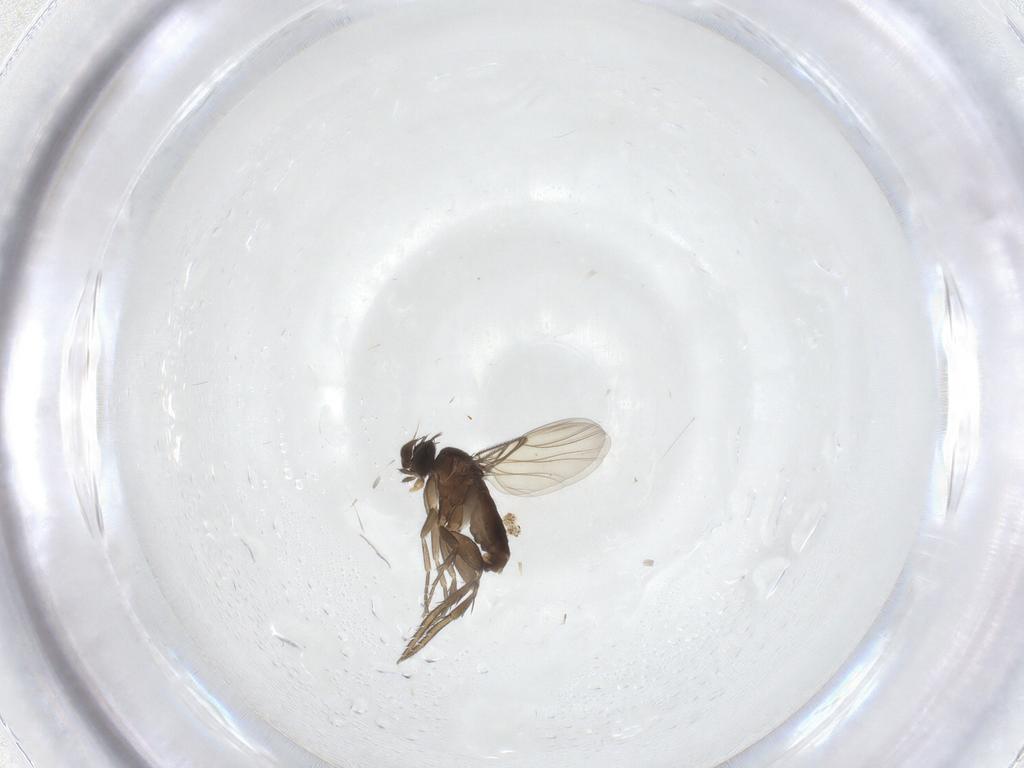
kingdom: Animalia
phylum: Arthropoda
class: Insecta
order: Diptera
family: Phoridae
